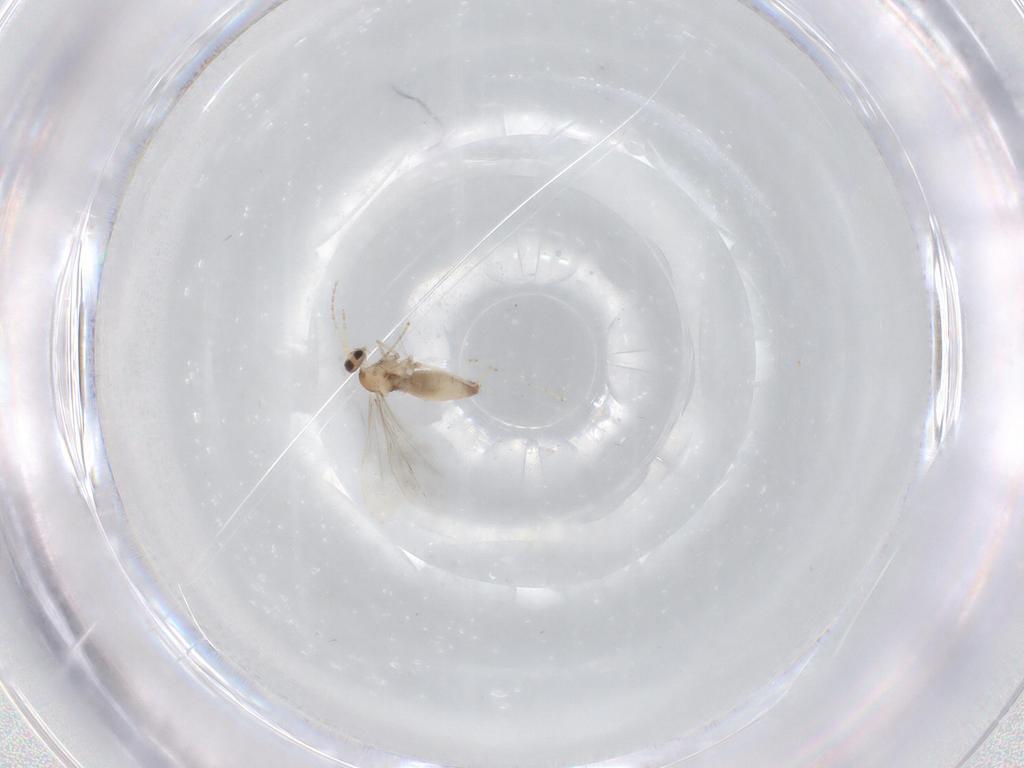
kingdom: Animalia
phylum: Arthropoda
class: Insecta
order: Diptera
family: Cecidomyiidae
